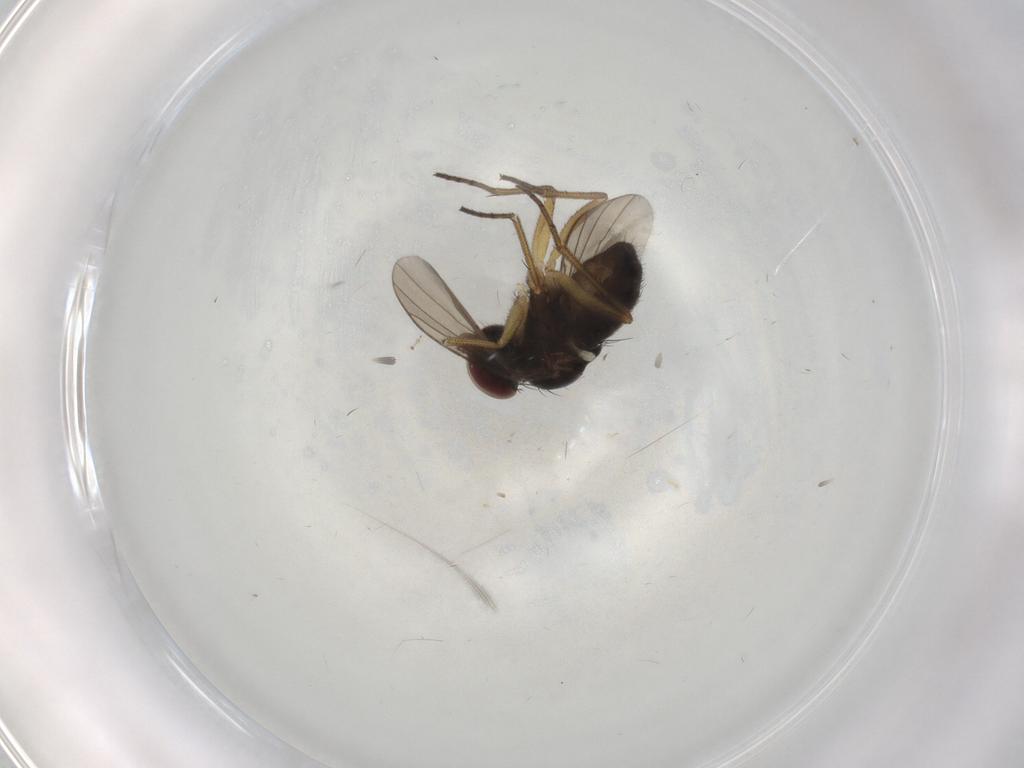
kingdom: Animalia
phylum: Arthropoda
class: Insecta
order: Diptera
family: Dolichopodidae
